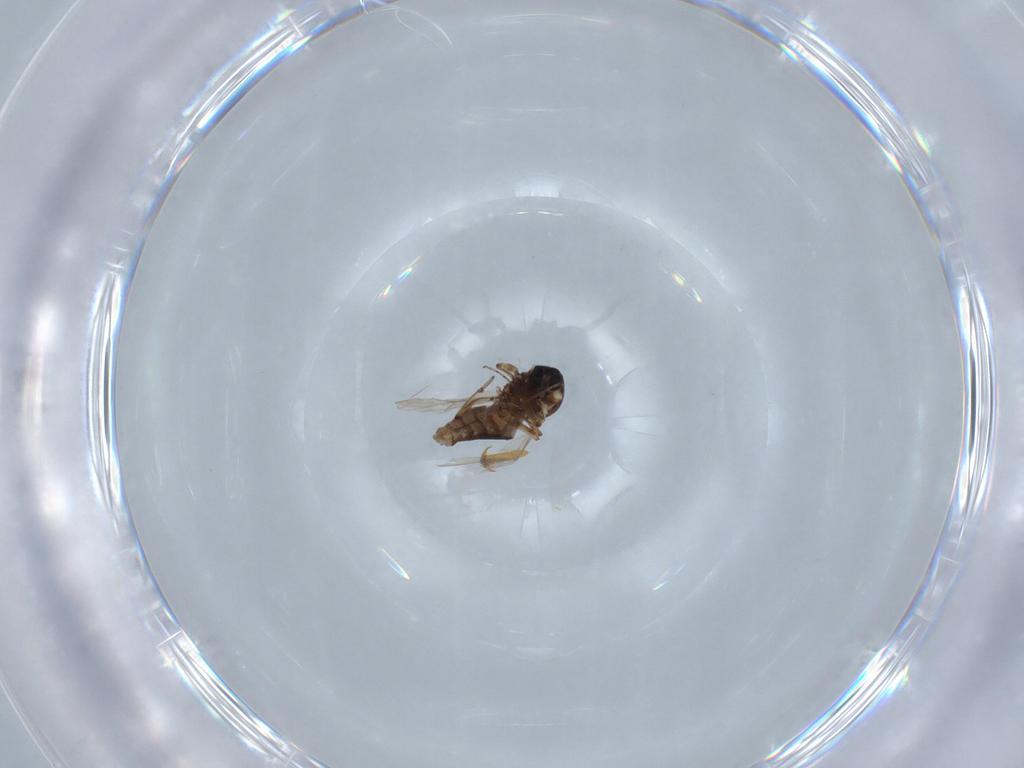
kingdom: Animalia
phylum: Arthropoda
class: Insecta
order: Diptera
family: Ceratopogonidae
